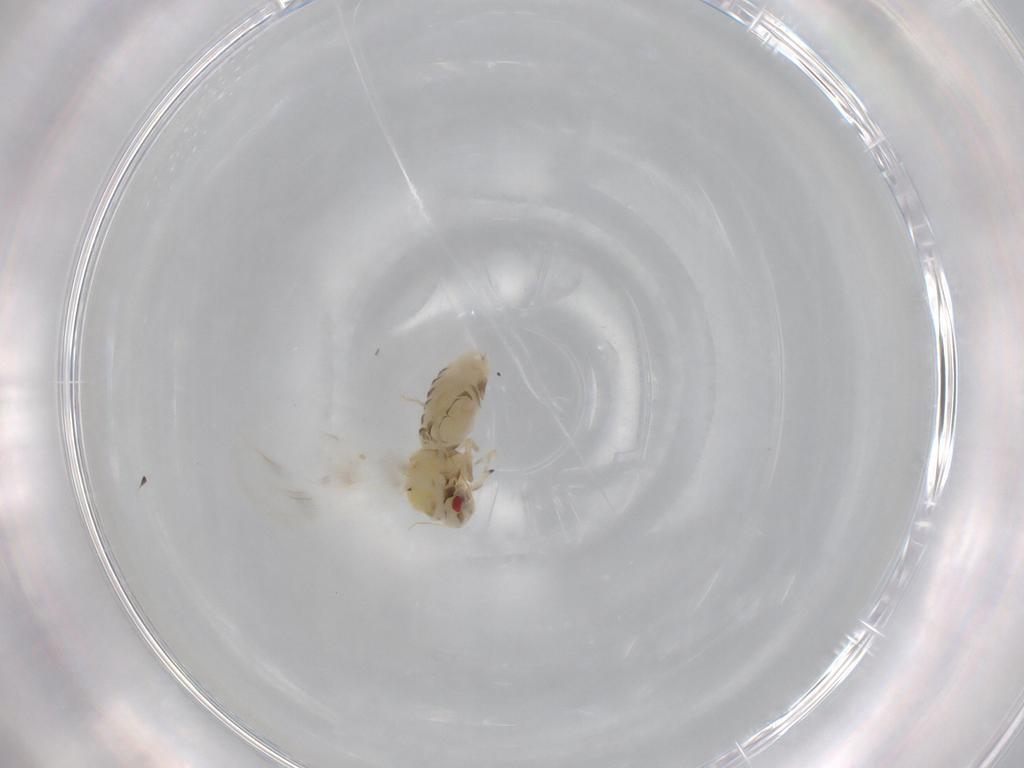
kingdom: Animalia
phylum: Arthropoda
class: Insecta
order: Hemiptera
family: Aleyrodidae
